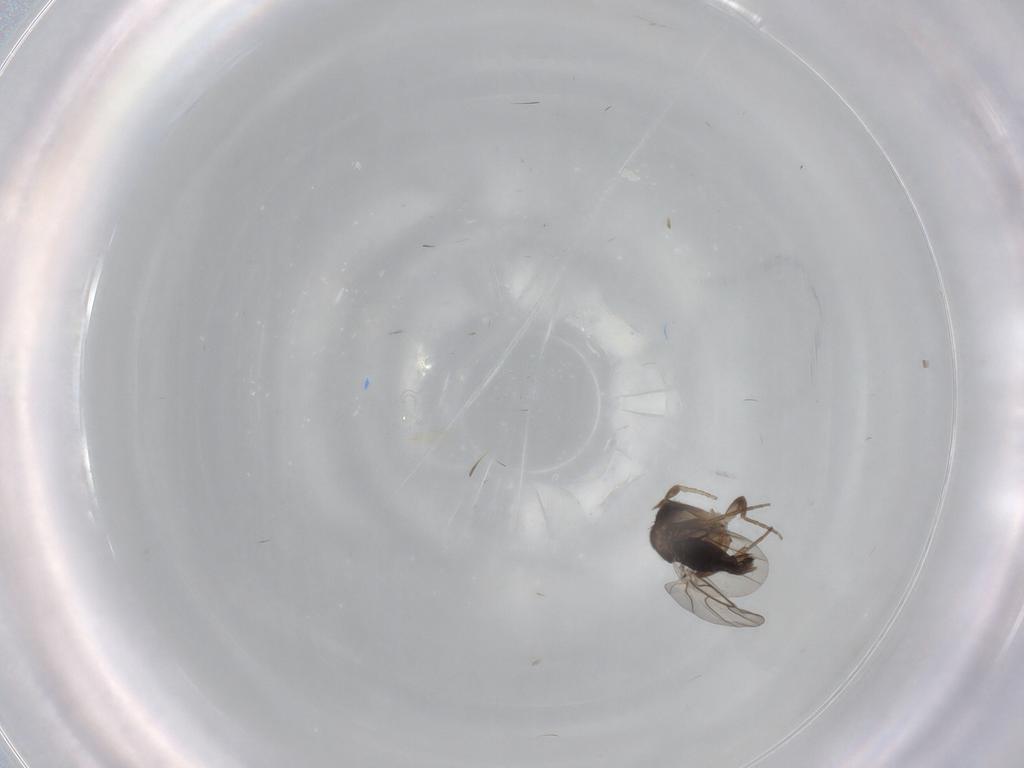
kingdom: Animalia
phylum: Arthropoda
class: Insecta
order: Diptera
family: Phoridae
